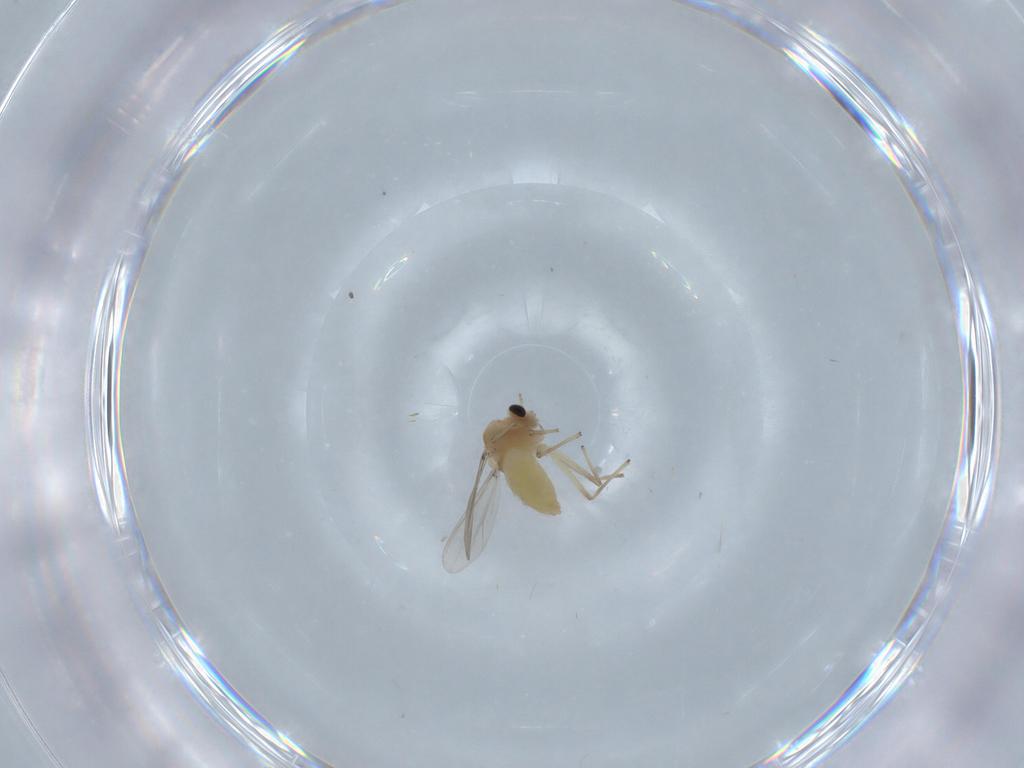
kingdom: Animalia
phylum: Arthropoda
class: Insecta
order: Diptera
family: Chironomidae
